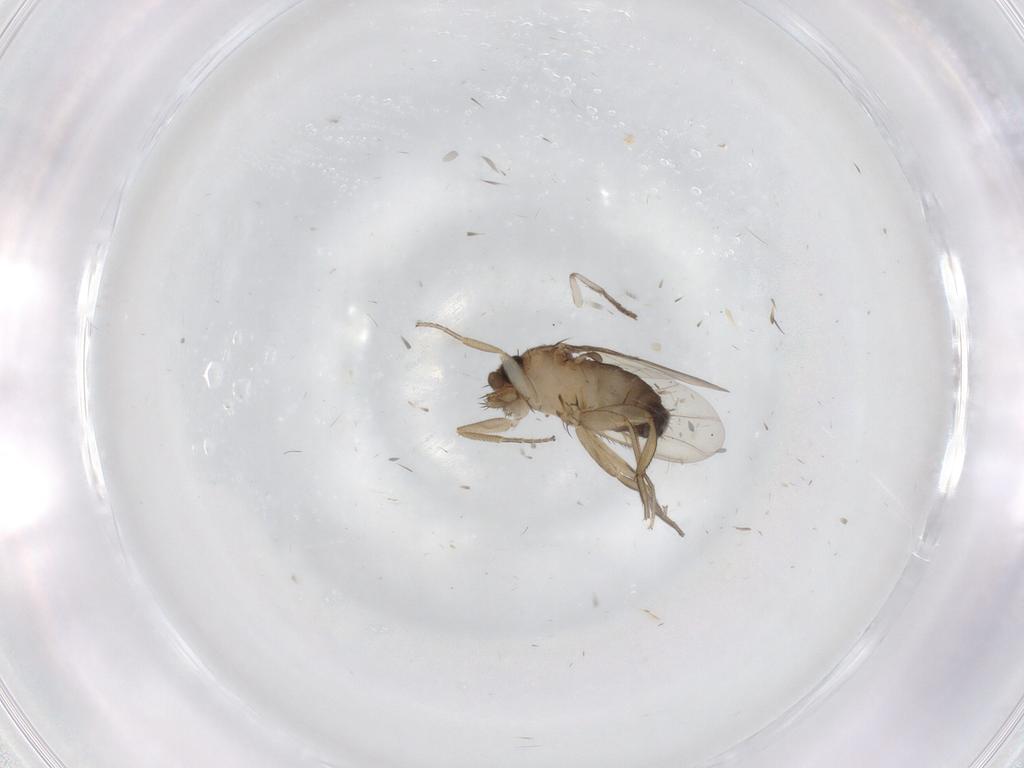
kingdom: Animalia
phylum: Arthropoda
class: Insecta
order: Diptera
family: Phoridae
